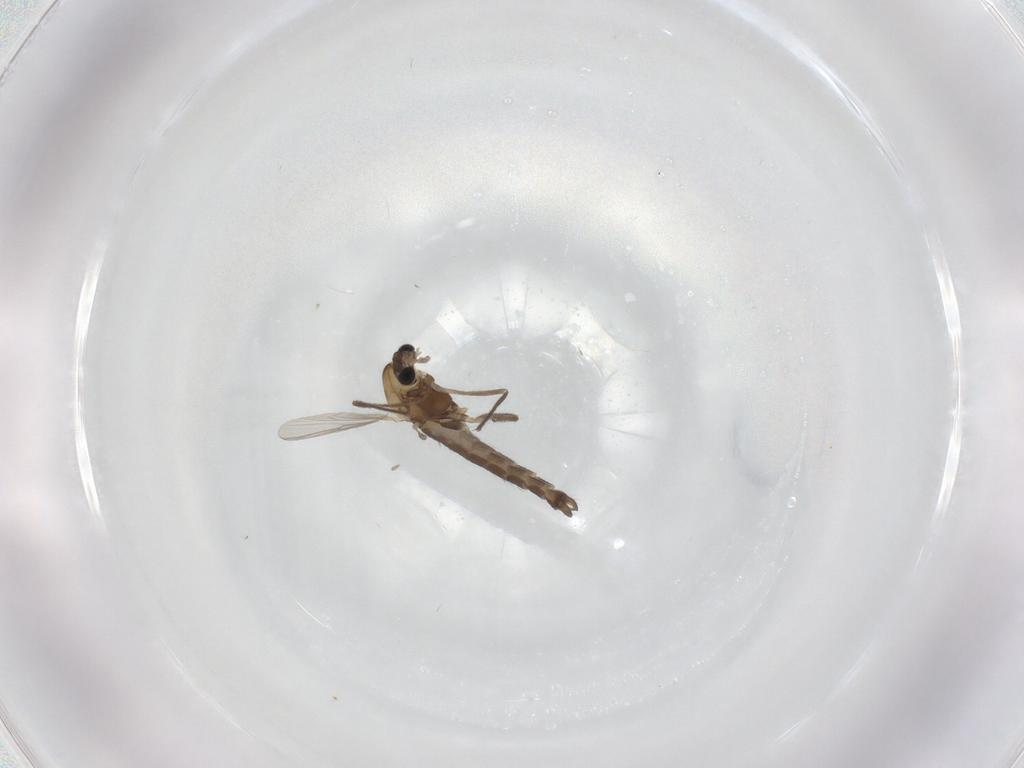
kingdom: Animalia
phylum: Arthropoda
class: Insecta
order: Diptera
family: Chironomidae
